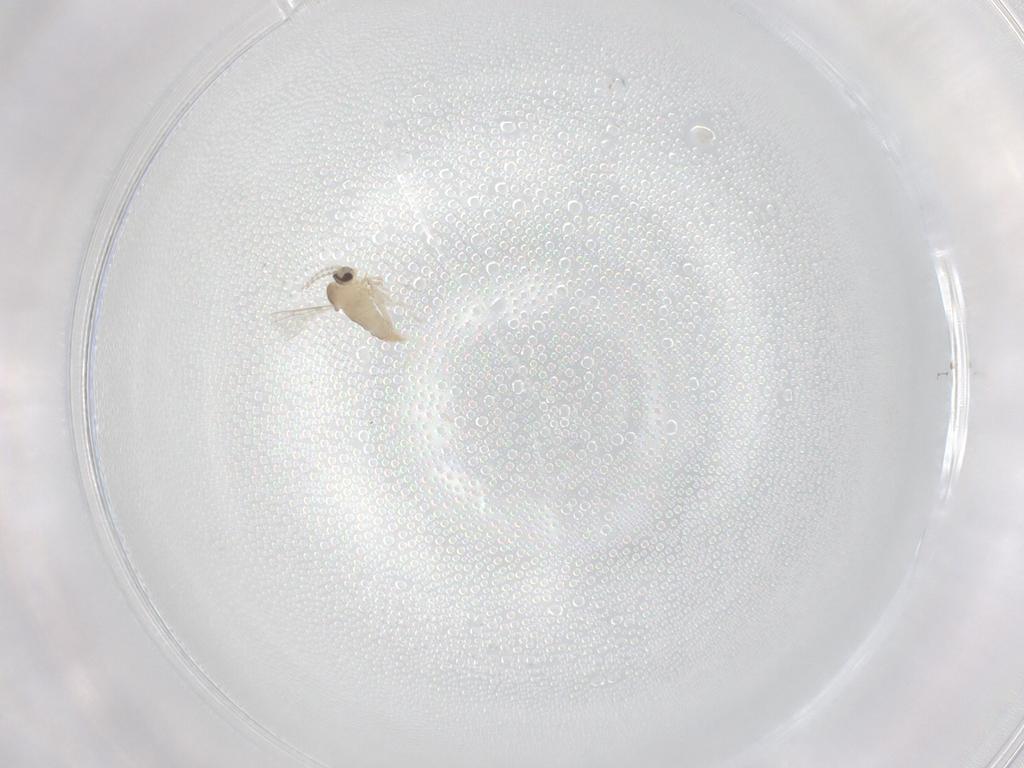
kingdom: Animalia
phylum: Arthropoda
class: Insecta
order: Diptera
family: Cecidomyiidae
